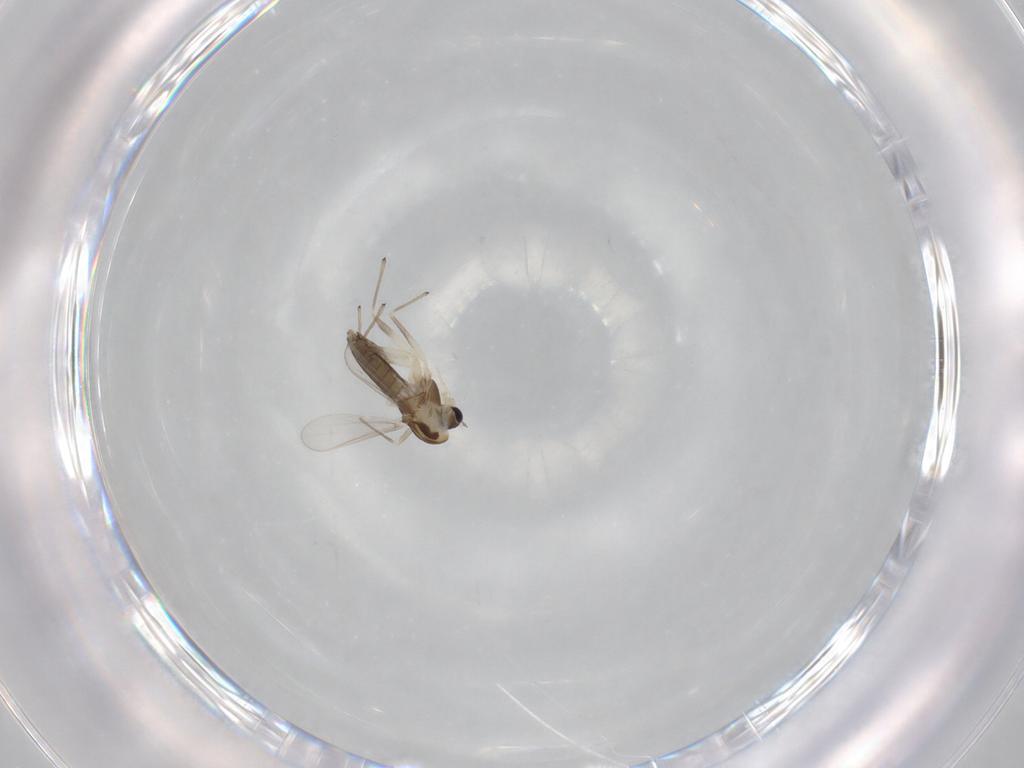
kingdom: Animalia
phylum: Arthropoda
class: Insecta
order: Diptera
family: Chironomidae
